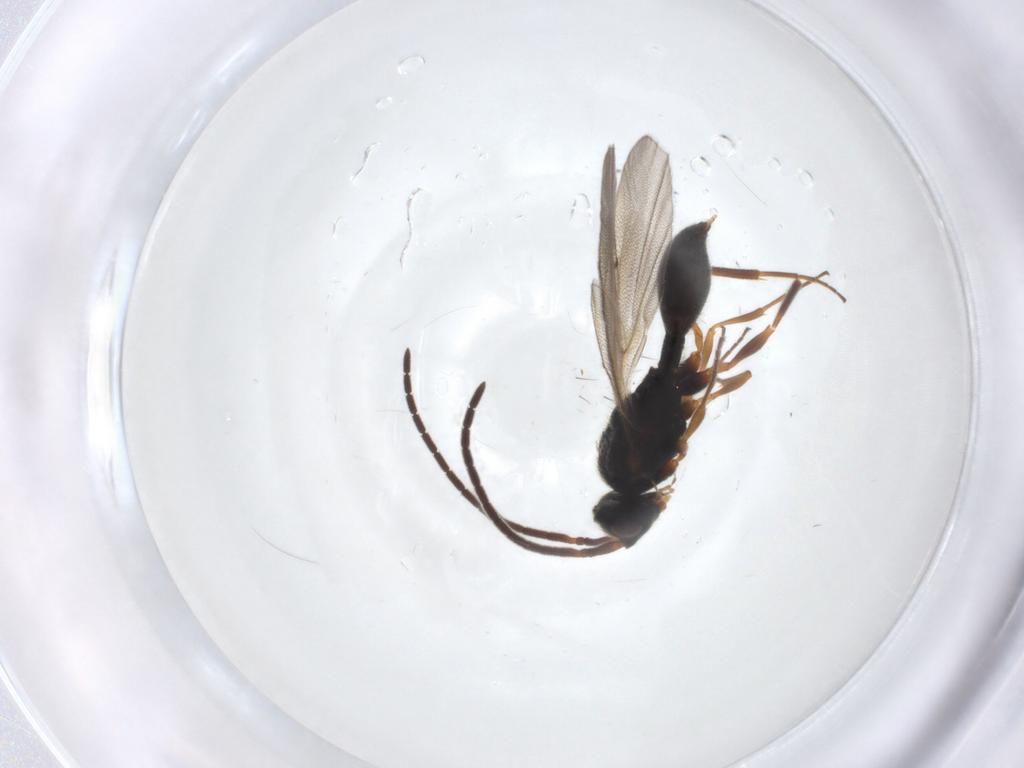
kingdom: Animalia
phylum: Arthropoda
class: Insecta
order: Hymenoptera
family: Diapriidae
